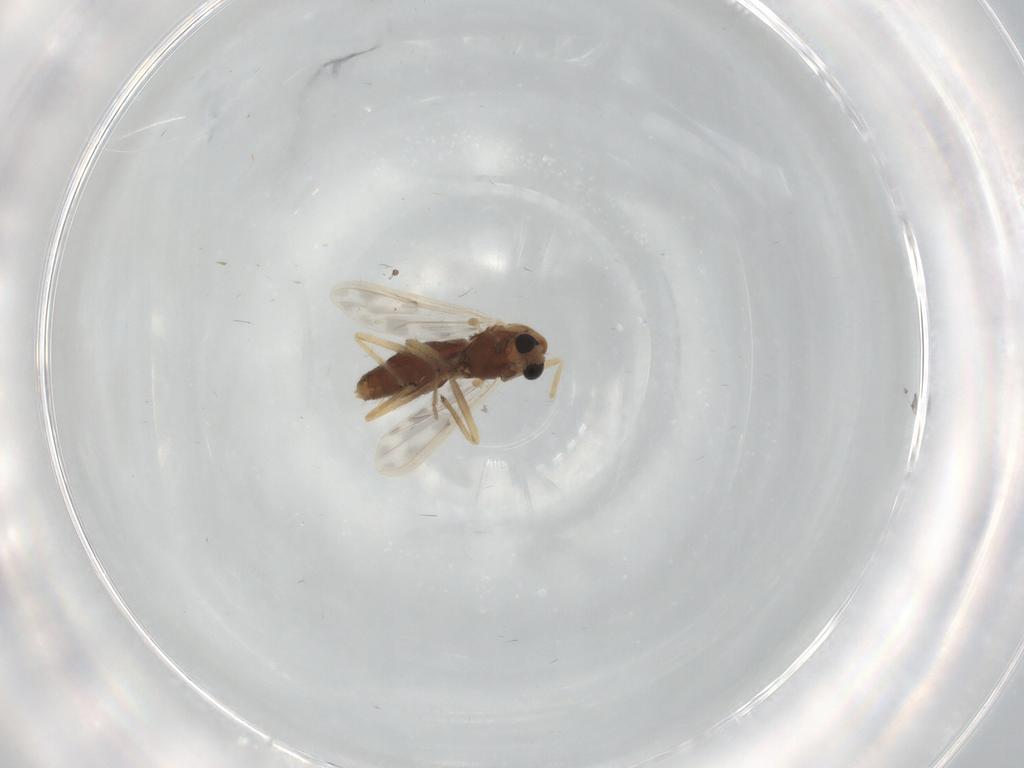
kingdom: Animalia
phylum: Arthropoda
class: Insecta
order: Diptera
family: Chironomidae
